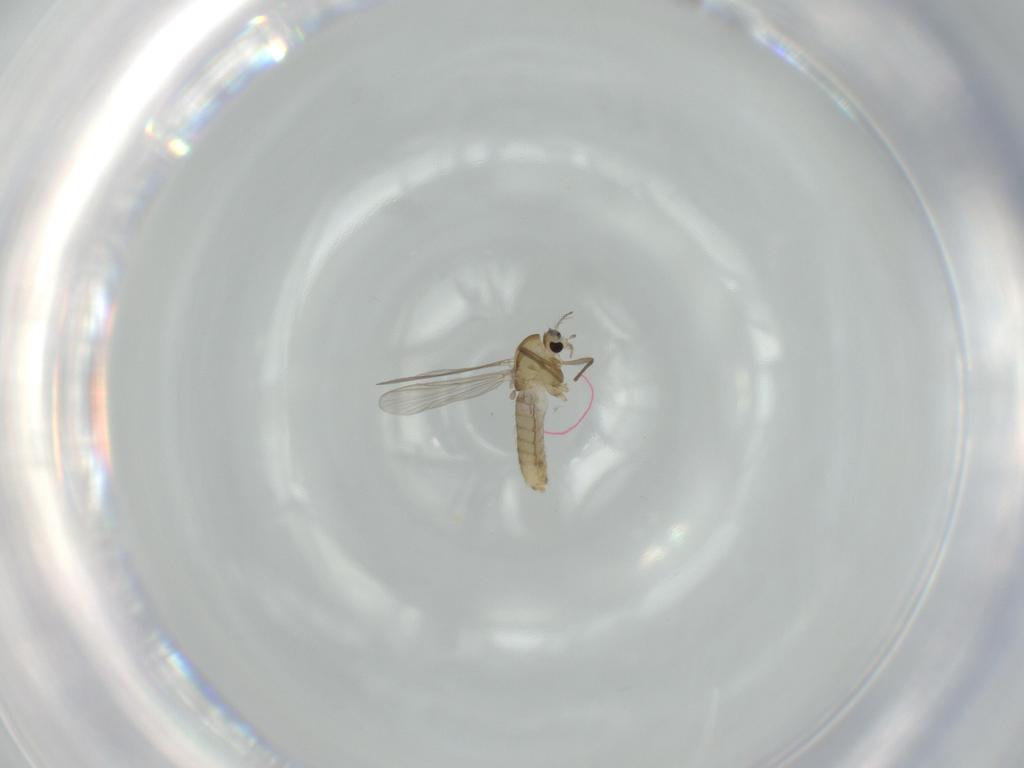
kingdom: Animalia
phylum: Arthropoda
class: Insecta
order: Diptera
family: Chironomidae
